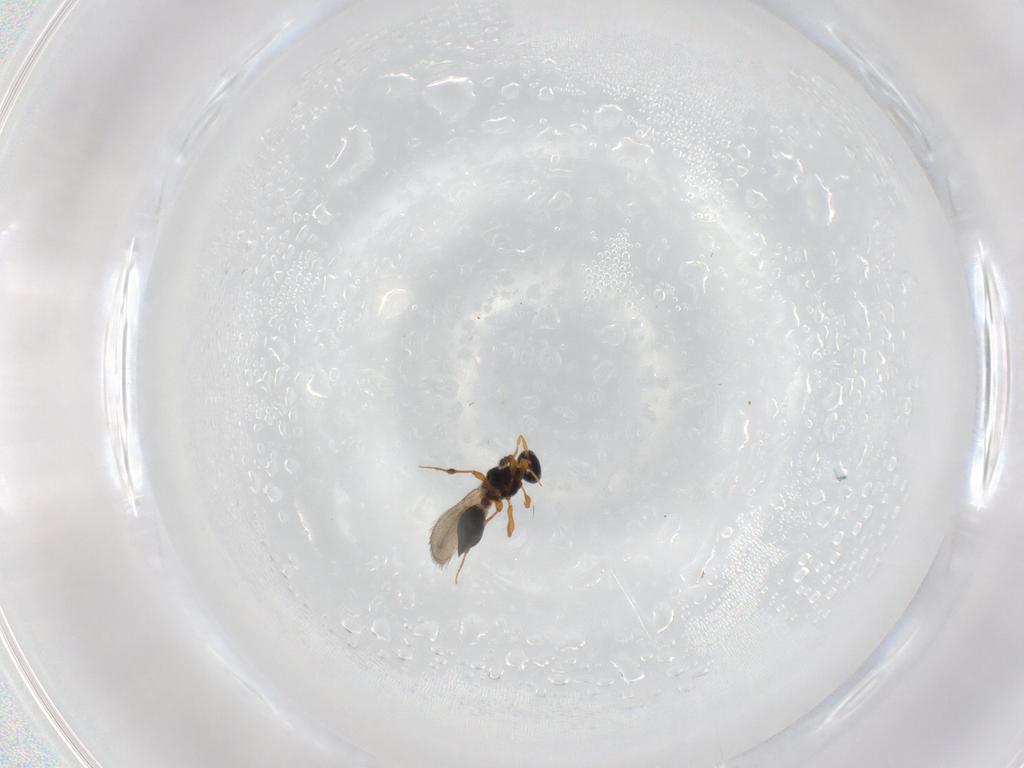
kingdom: Animalia
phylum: Arthropoda
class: Insecta
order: Hymenoptera
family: Platygastridae
